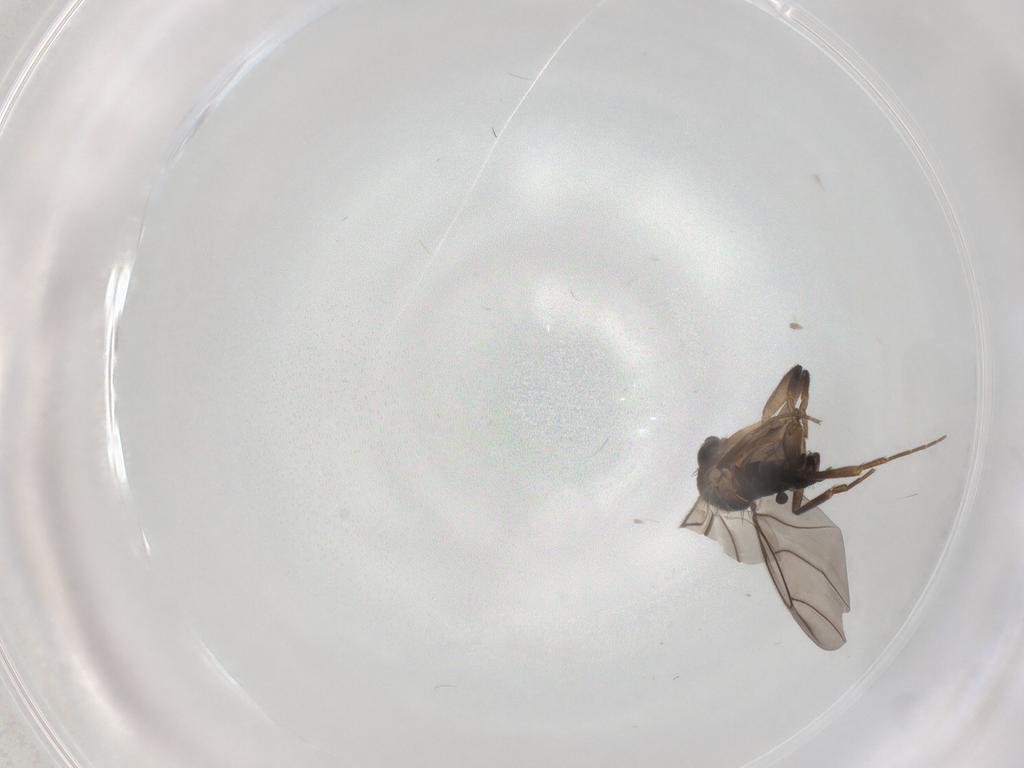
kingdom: Animalia
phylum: Arthropoda
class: Insecta
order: Diptera
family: Phoridae
